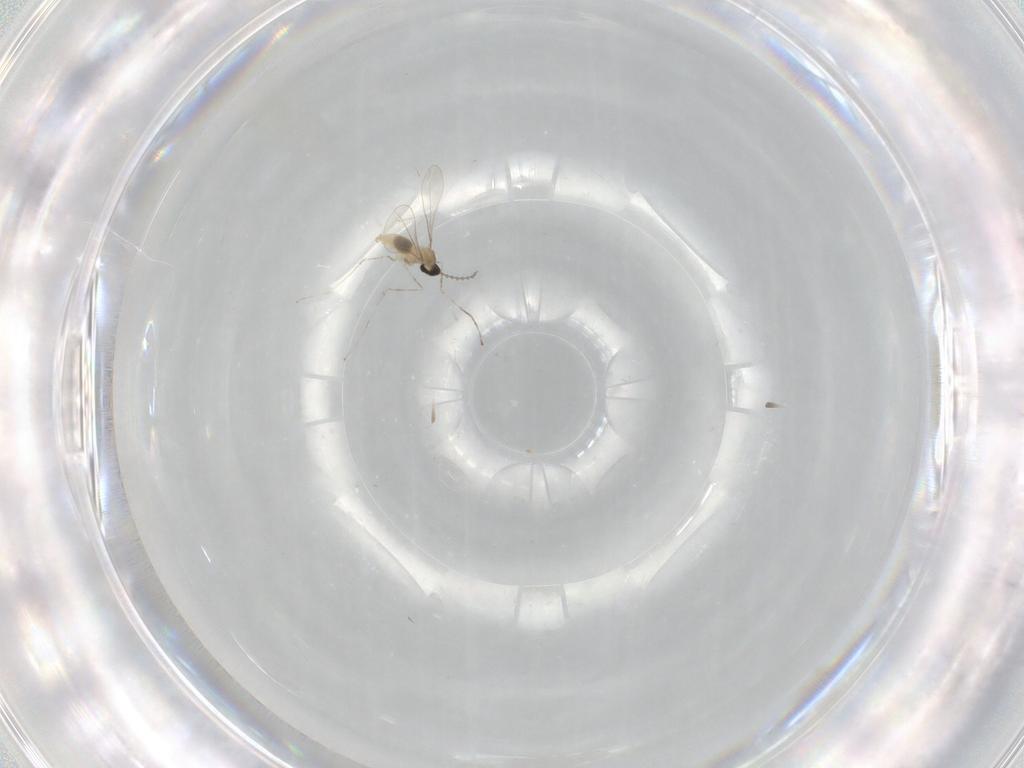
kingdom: Animalia
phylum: Arthropoda
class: Insecta
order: Diptera
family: Cecidomyiidae
